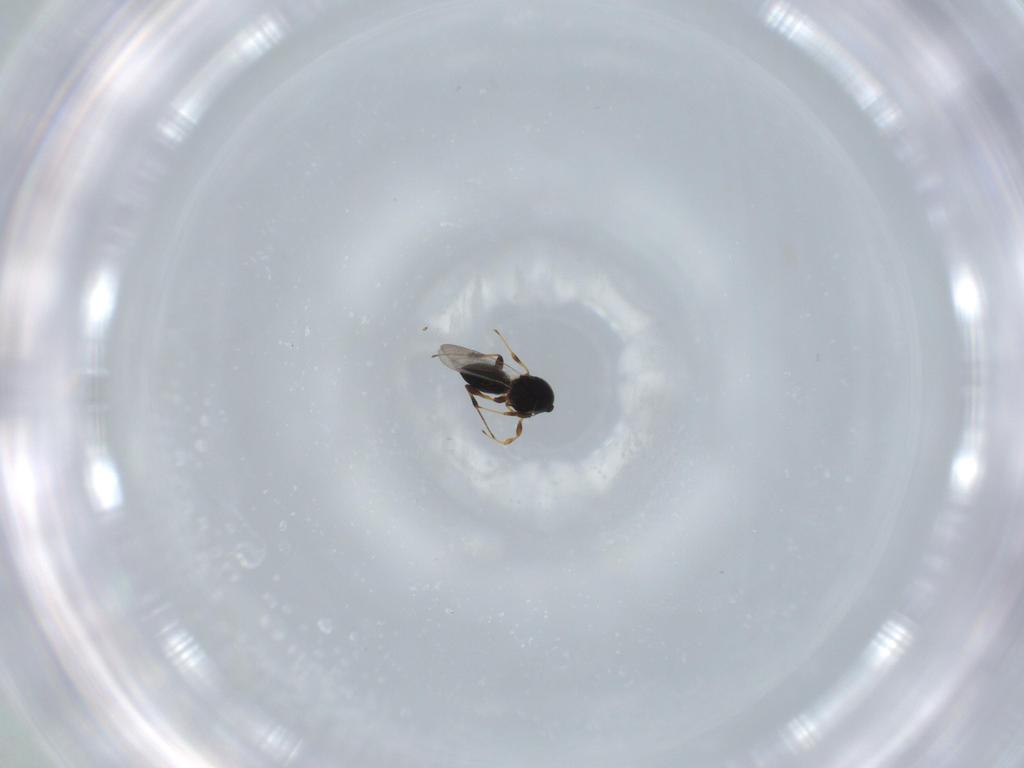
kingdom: Animalia
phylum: Arthropoda
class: Insecta
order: Hymenoptera
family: Platygastridae
